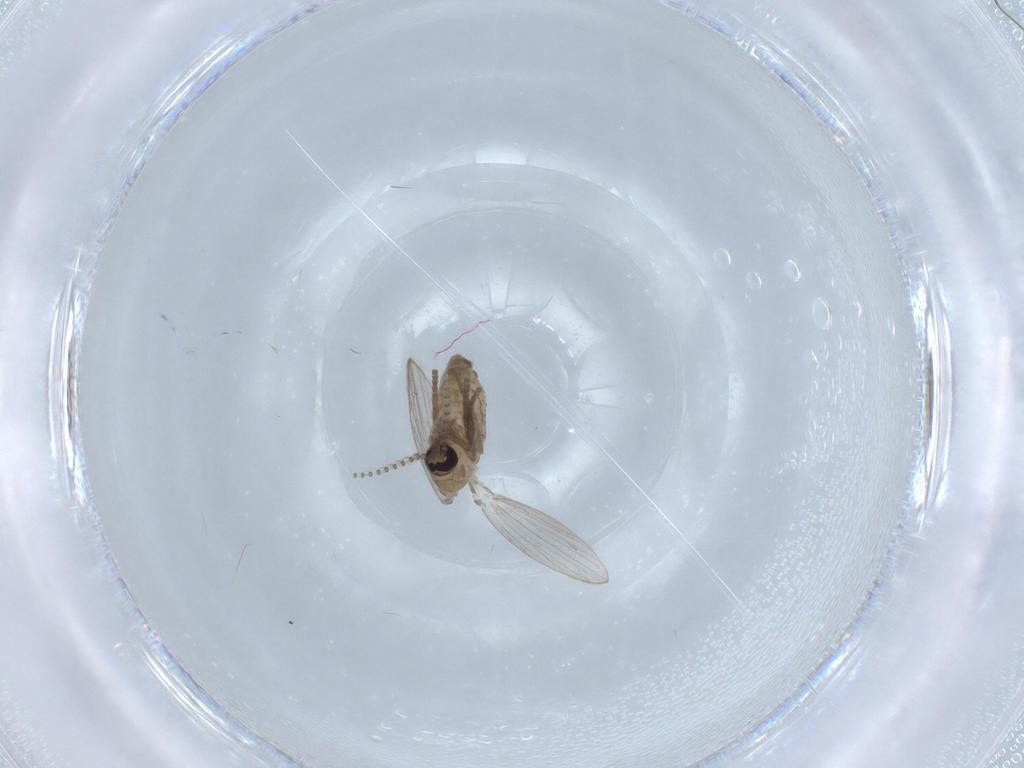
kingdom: Animalia
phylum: Arthropoda
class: Insecta
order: Diptera
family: Psychodidae
